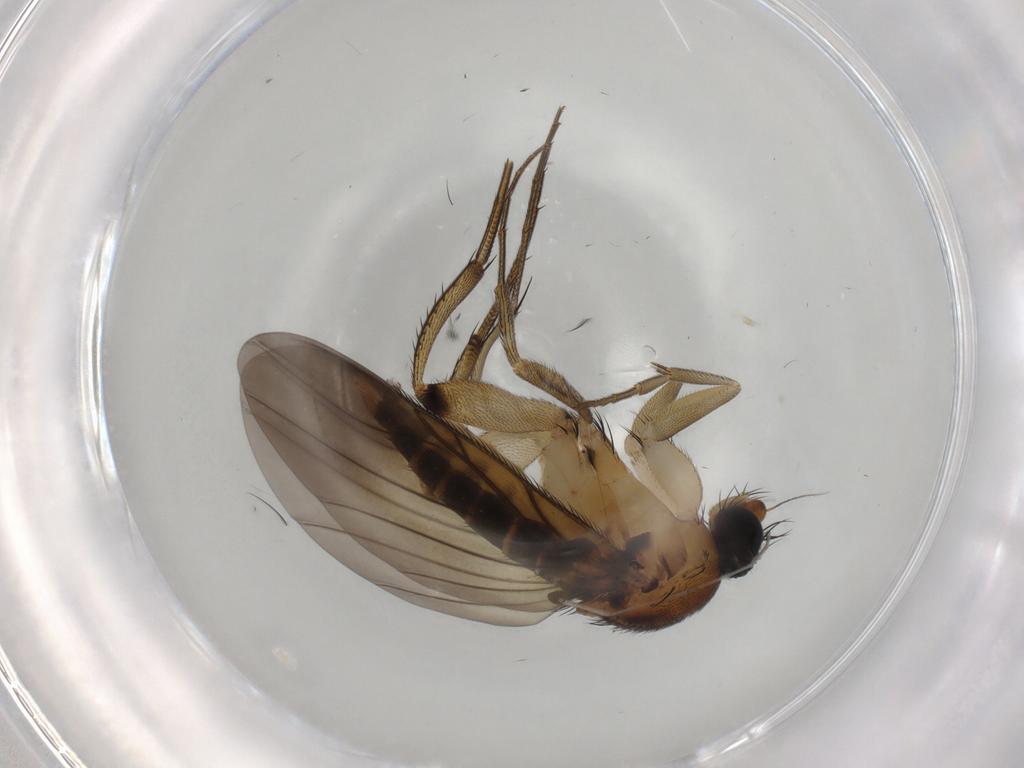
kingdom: Animalia
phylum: Arthropoda
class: Insecta
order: Diptera
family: Phoridae
